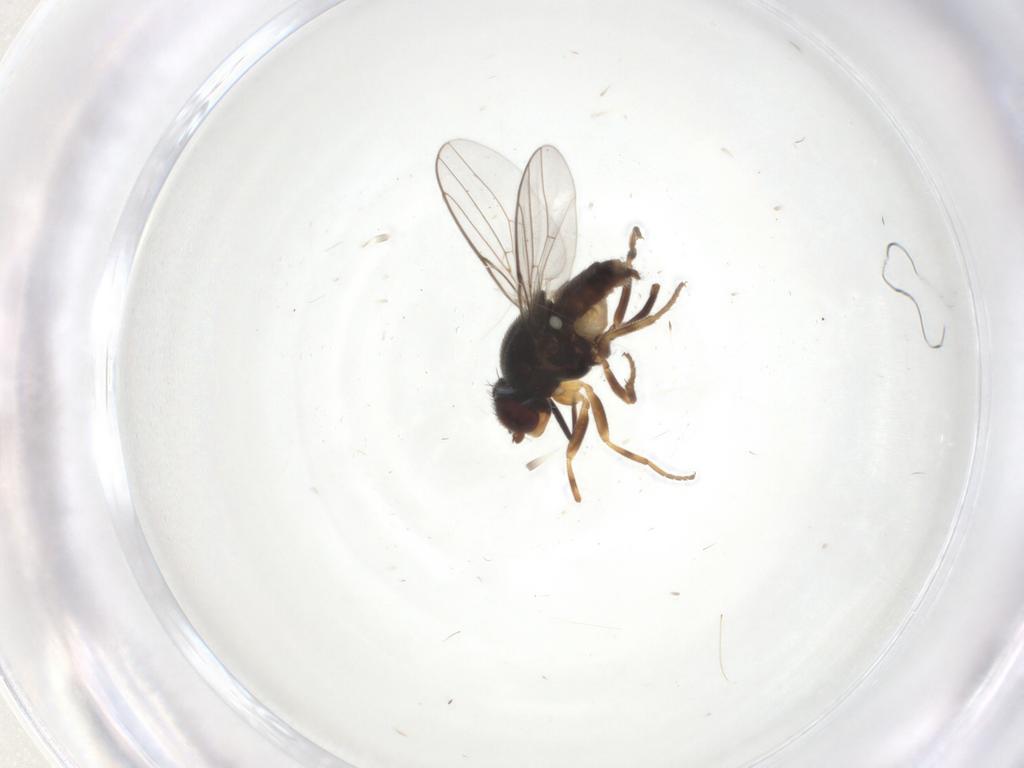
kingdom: Animalia
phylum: Arthropoda
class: Insecta
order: Diptera
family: Chloropidae
